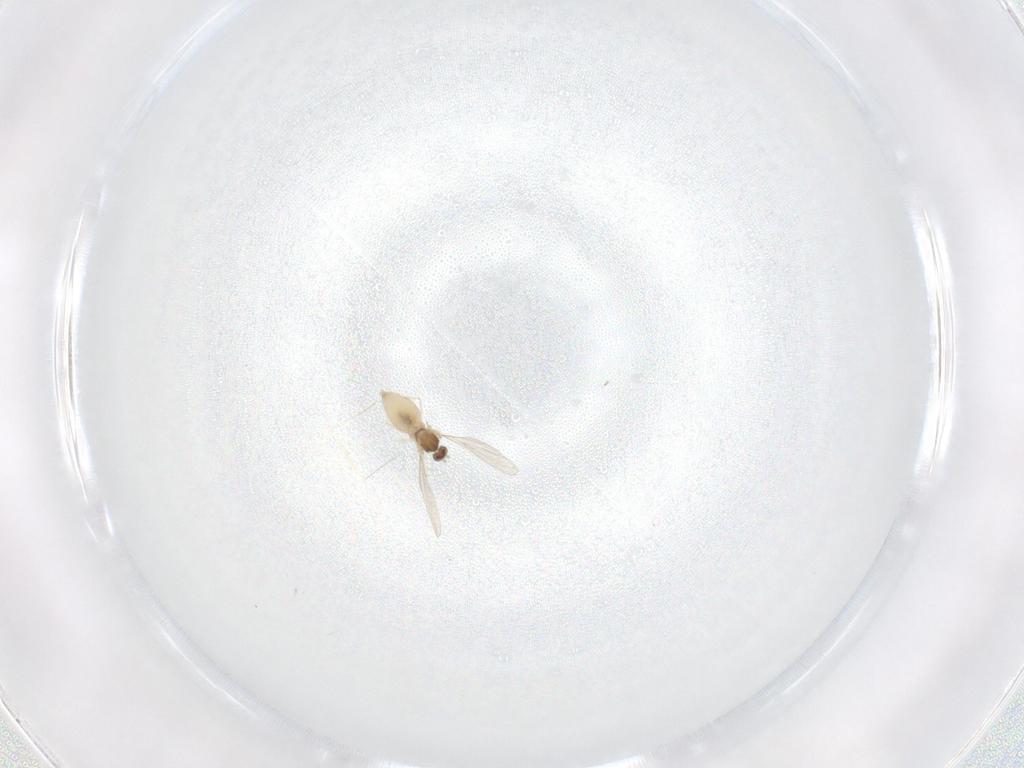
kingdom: Animalia
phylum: Arthropoda
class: Insecta
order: Diptera
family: Cecidomyiidae
